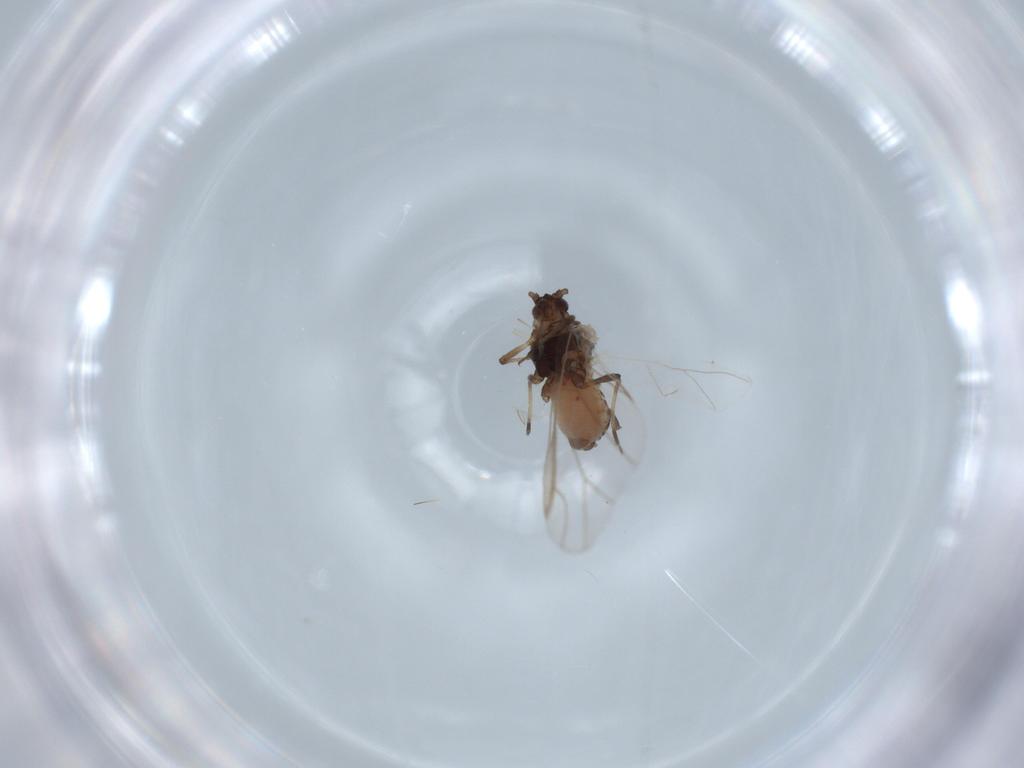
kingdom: Animalia
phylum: Arthropoda
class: Insecta
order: Hemiptera
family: Aphididae
